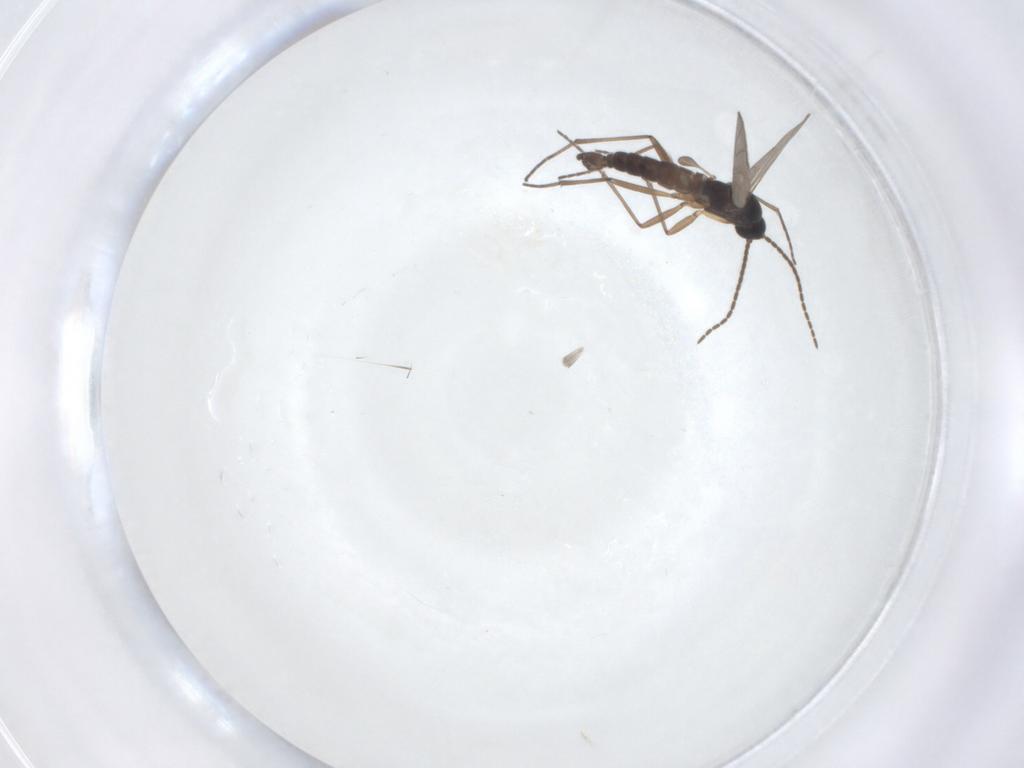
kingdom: Animalia
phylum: Arthropoda
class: Insecta
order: Diptera
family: Sciaridae
